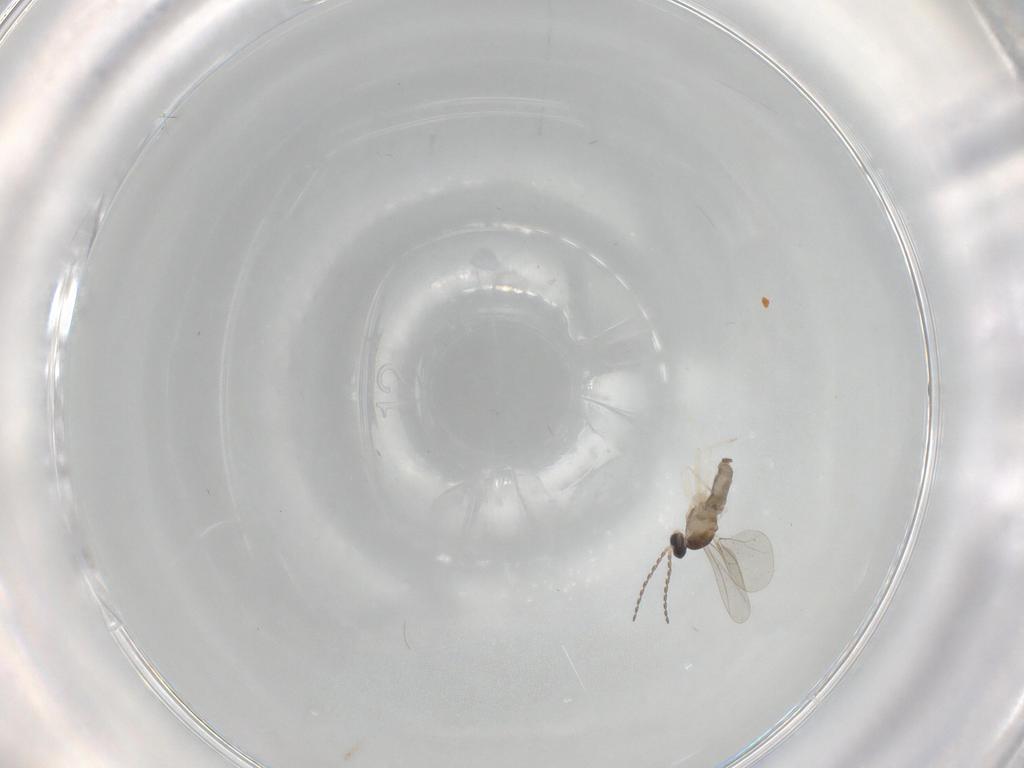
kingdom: Animalia
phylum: Arthropoda
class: Insecta
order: Diptera
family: Cecidomyiidae
